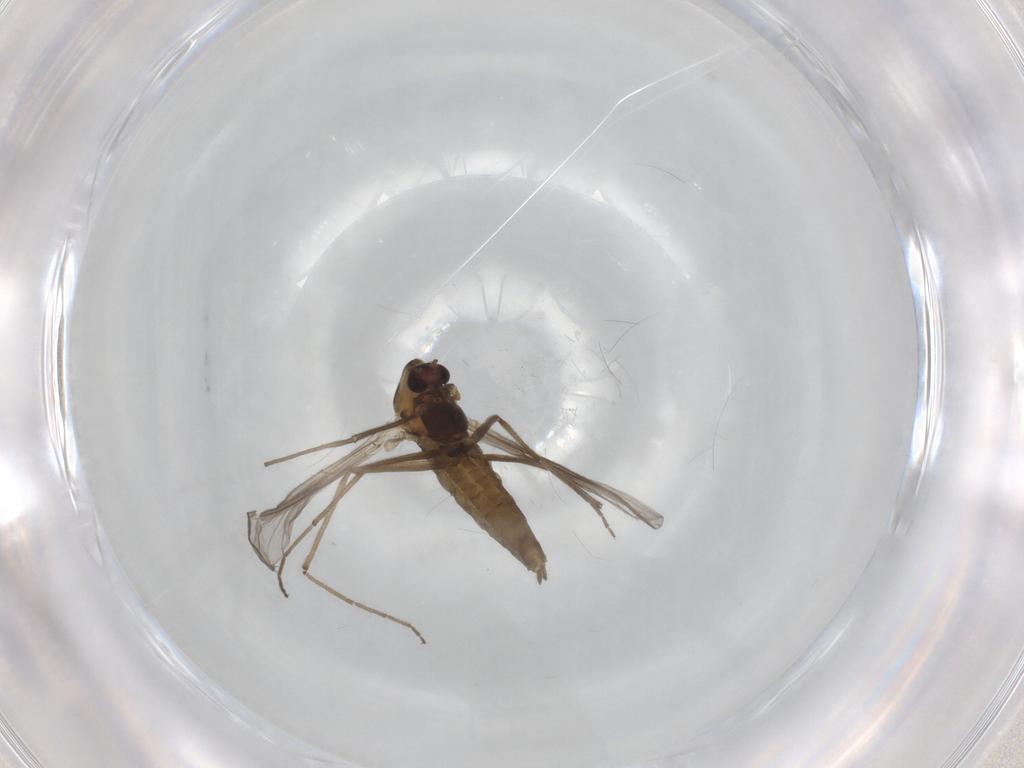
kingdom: Animalia
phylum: Arthropoda
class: Insecta
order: Diptera
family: Chironomidae
